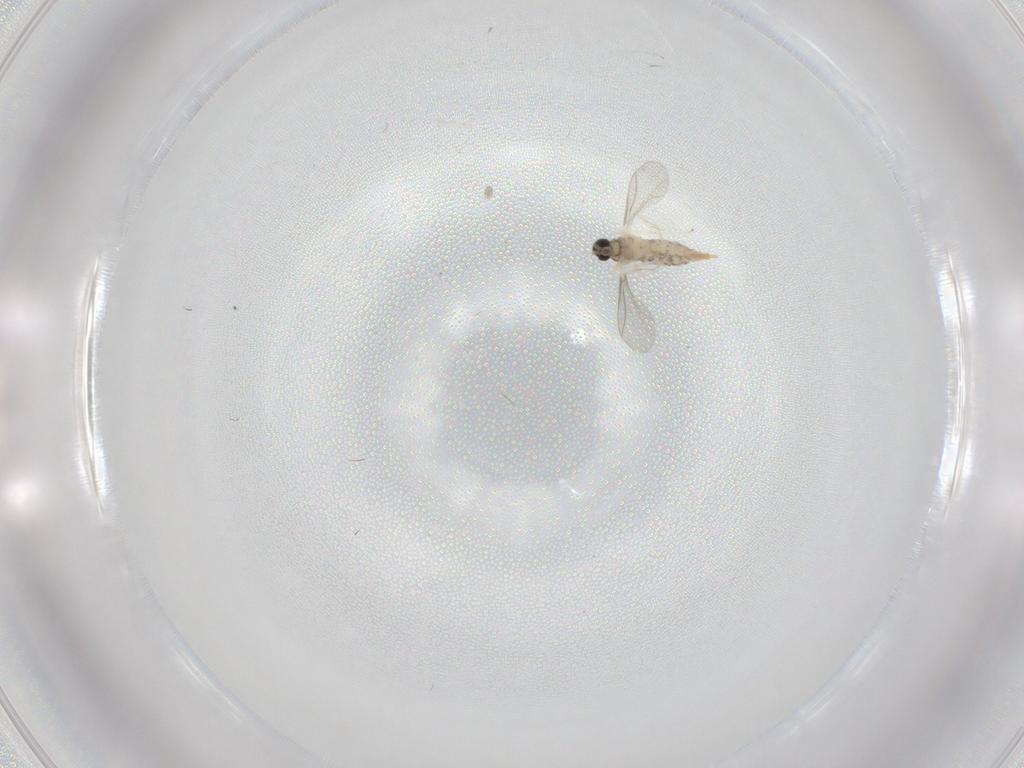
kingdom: Animalia
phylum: Arthropoda
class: Insecta
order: Diptera
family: Cecidomyiidae
